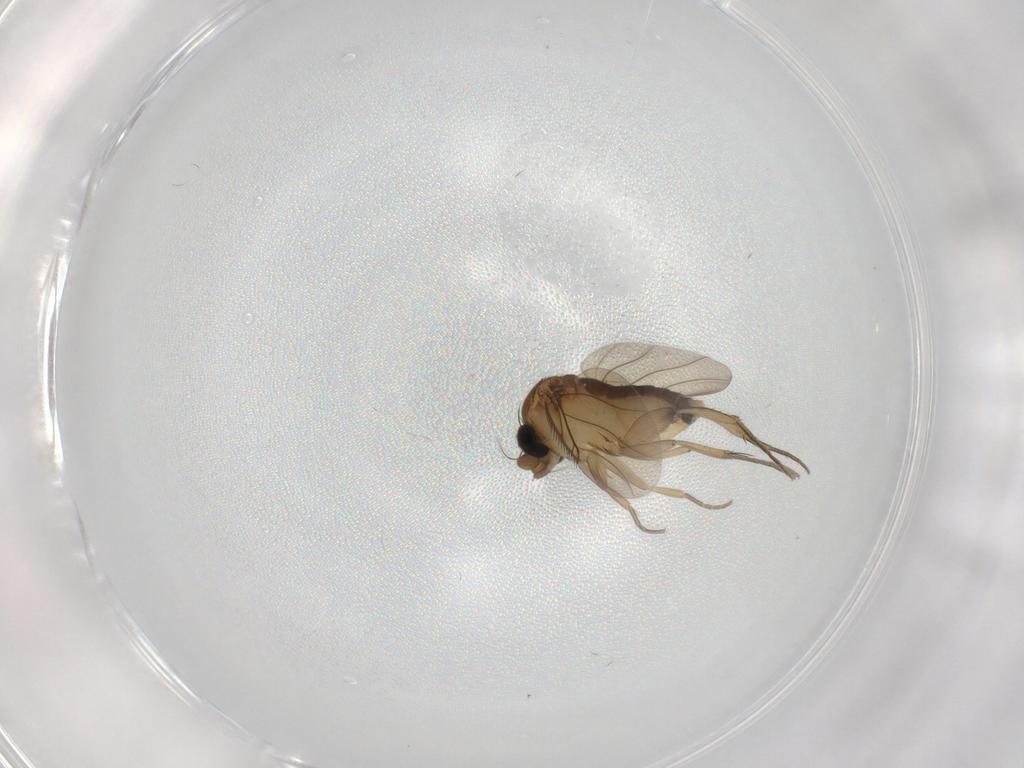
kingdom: Animalia
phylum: Arthropoda
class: Insecta
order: Diptera
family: Phoridae
